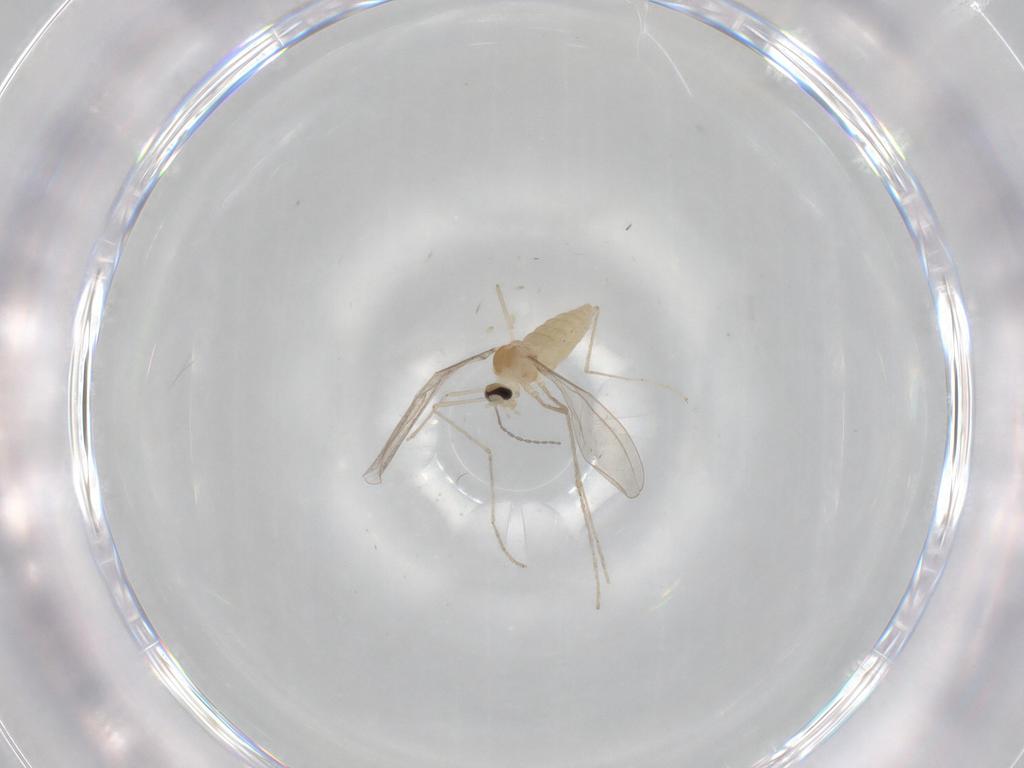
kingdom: Animalia
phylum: Arthropoda
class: Insecta
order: Diptera
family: Cecidomyiidae
